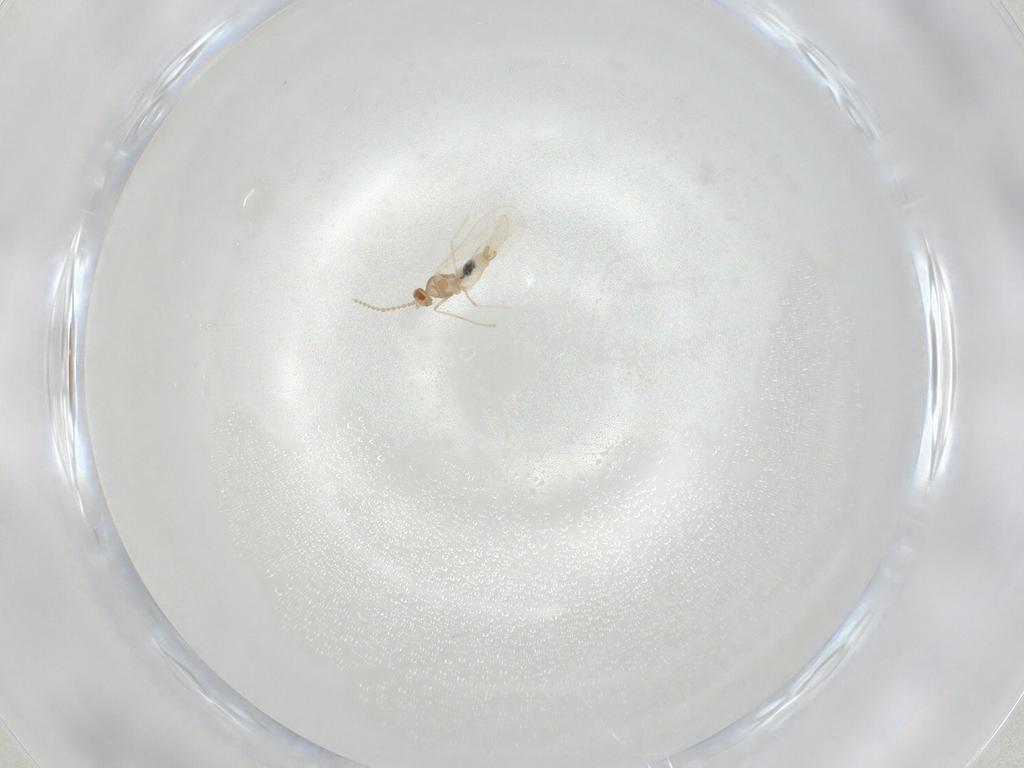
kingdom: Animalia
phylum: Arthropoda
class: Insecta
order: Diptera
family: Cecidomyiidae
